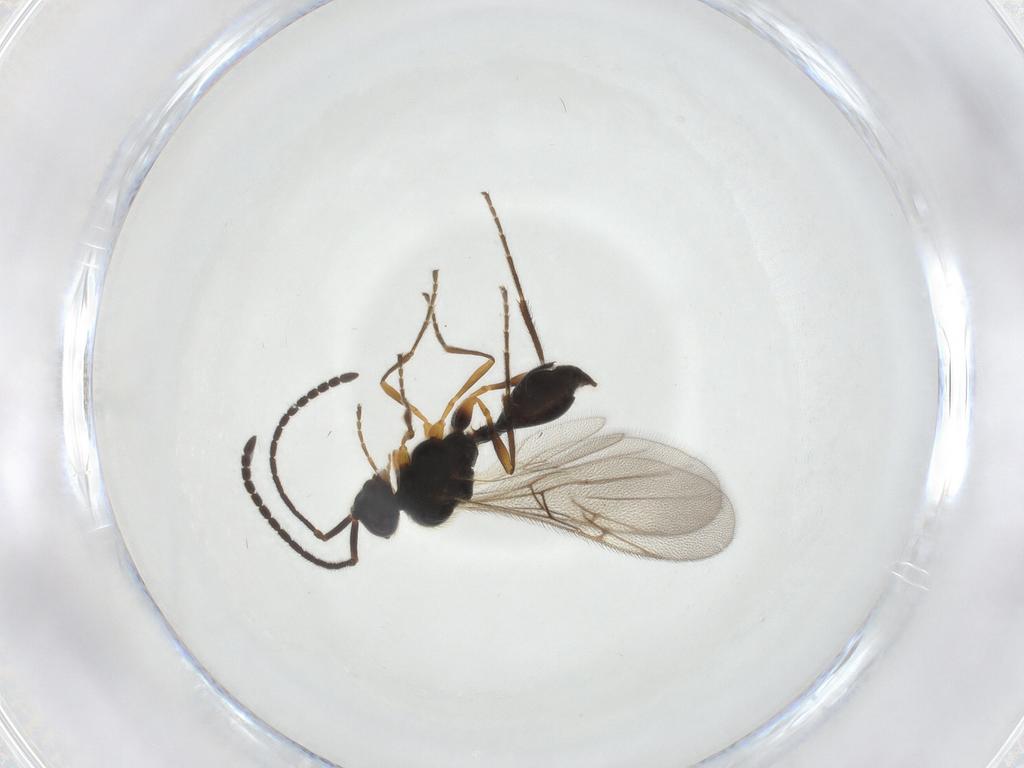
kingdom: Animalia
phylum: Arthropoda
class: Insecta
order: Hymenoptera
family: Diapriidae
